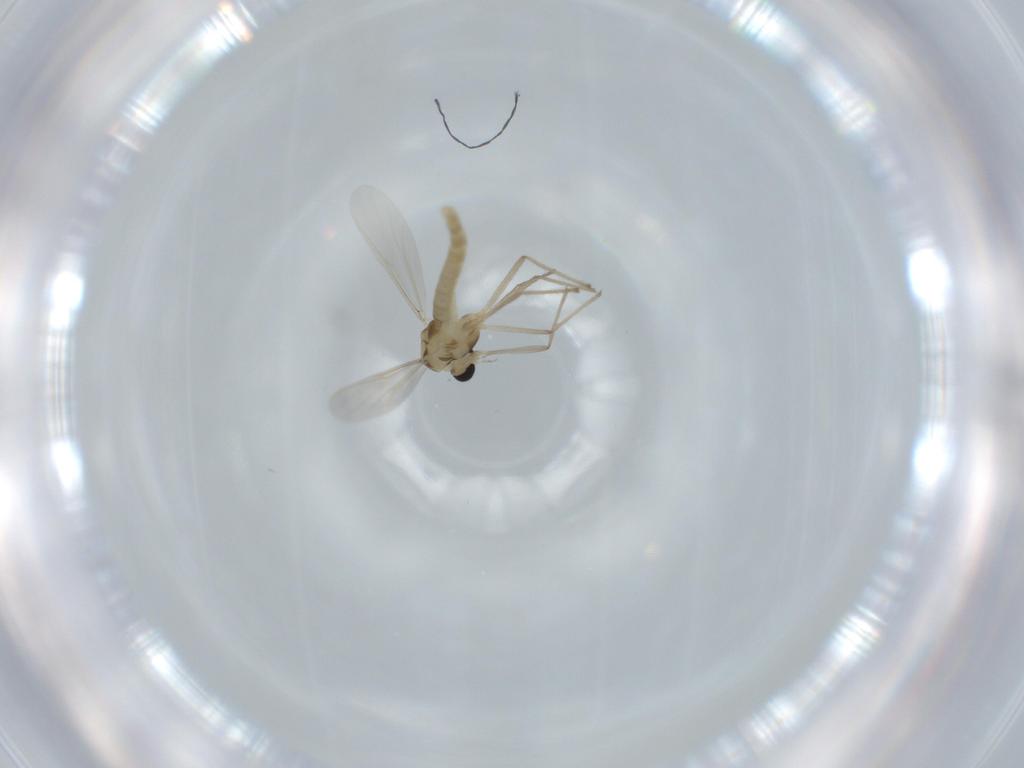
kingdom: Animalia
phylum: Arthropoda
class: Insecta
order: Diptera
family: Chironomidae
